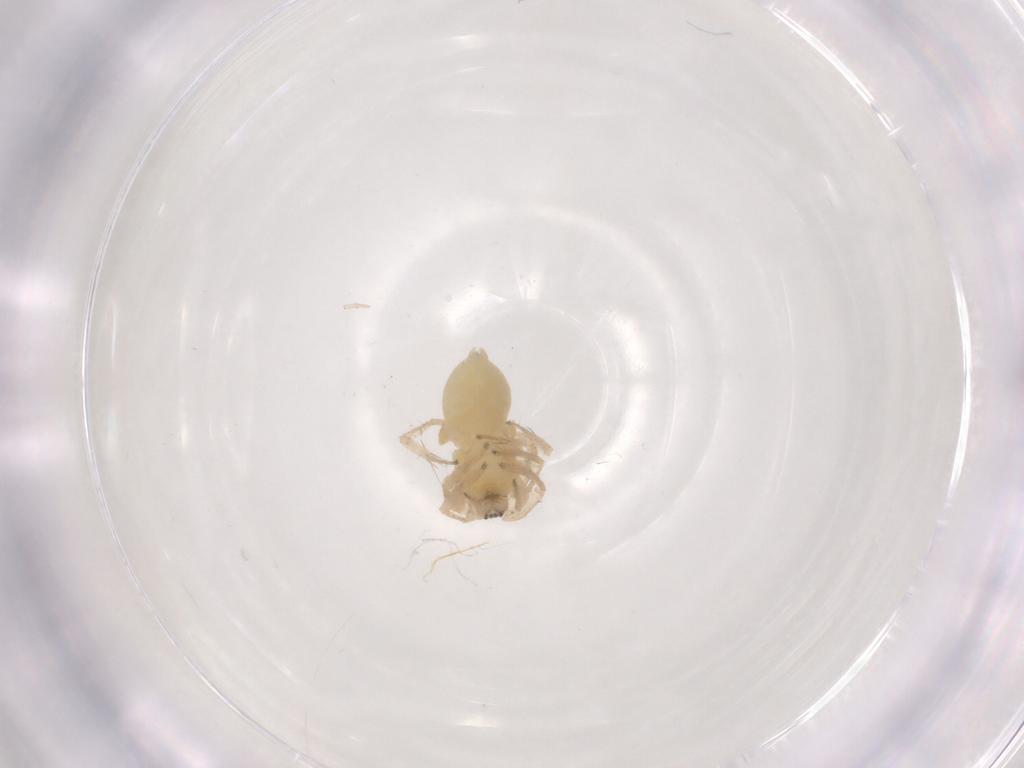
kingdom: Animalia
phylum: Arthropoda
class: Arachnida
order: Araneae
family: Anyphaenidae
